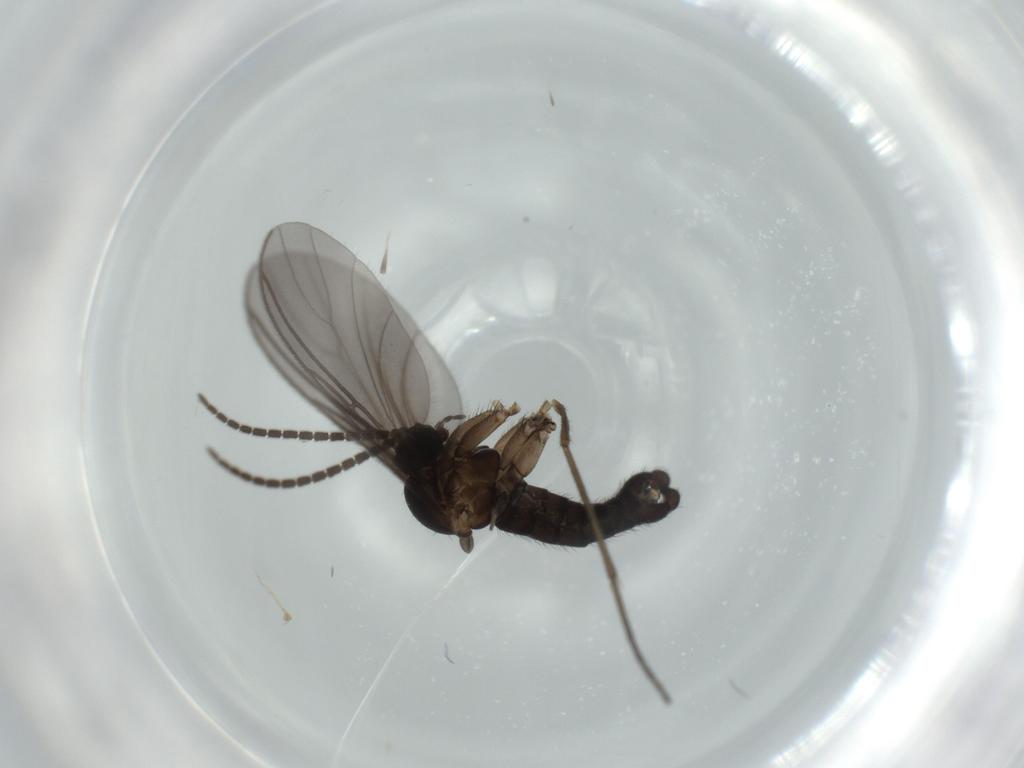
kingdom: Animalia
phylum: Arthropoda
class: Insecta
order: Diptera
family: Sciaridae
